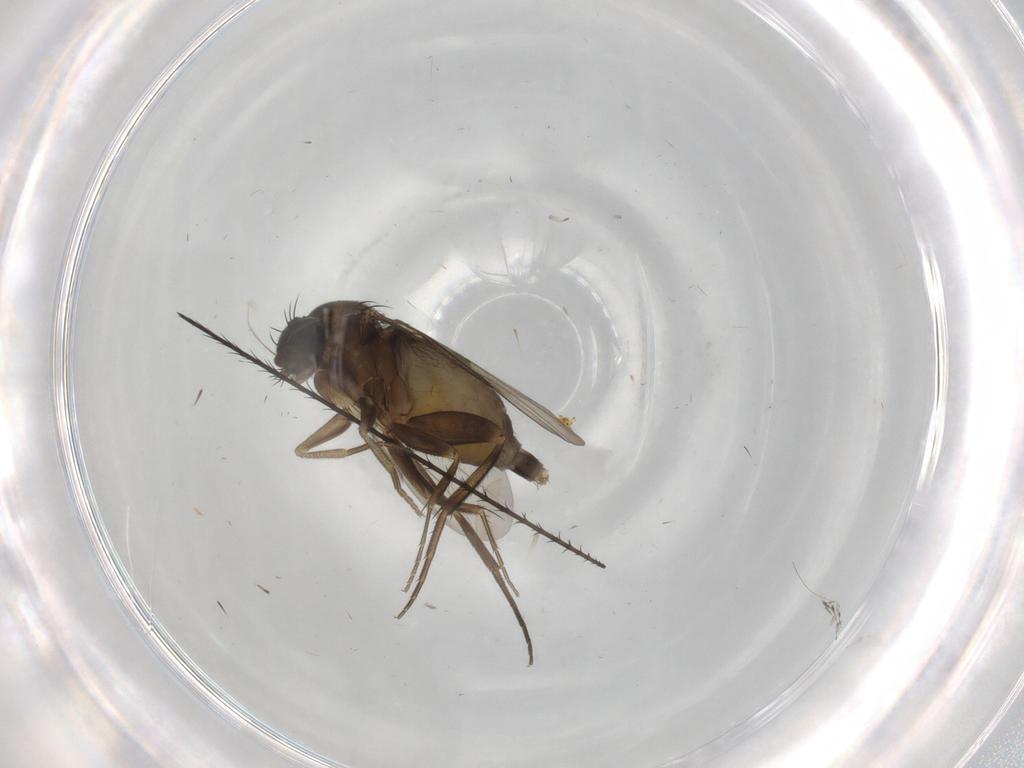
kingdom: Animalia
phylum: Arthropoda
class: Insecta
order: Diptera
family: Phoridae
